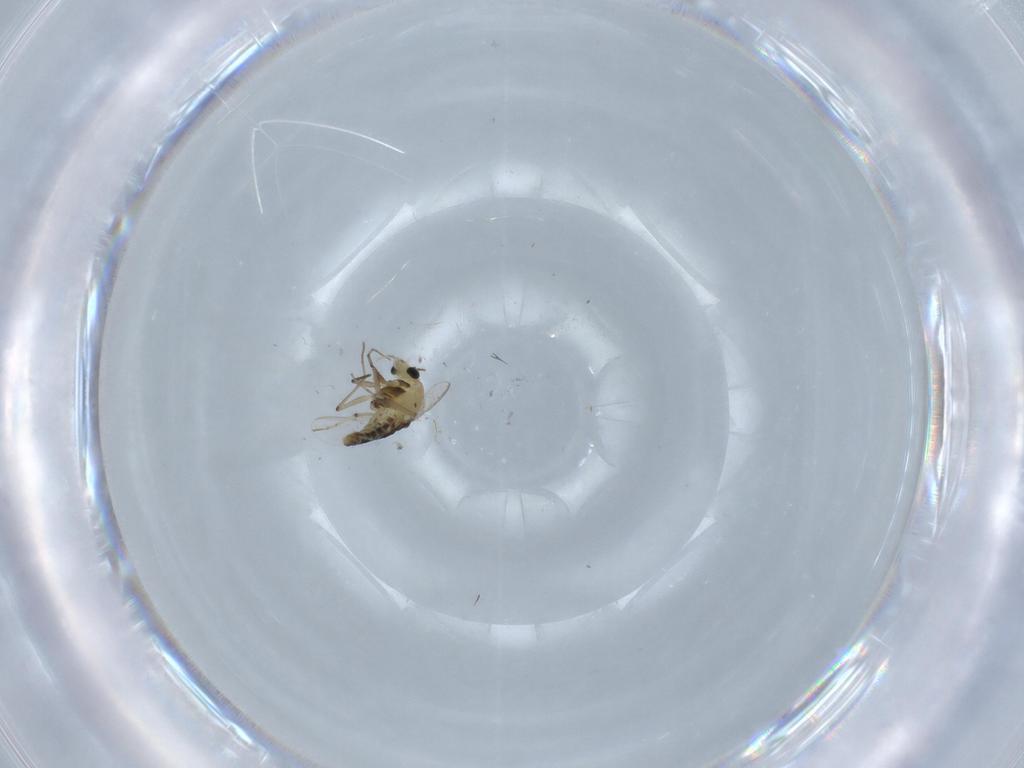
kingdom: Animalia
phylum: Arthropoda
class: Insecta
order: Diptera
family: Chironomidae
